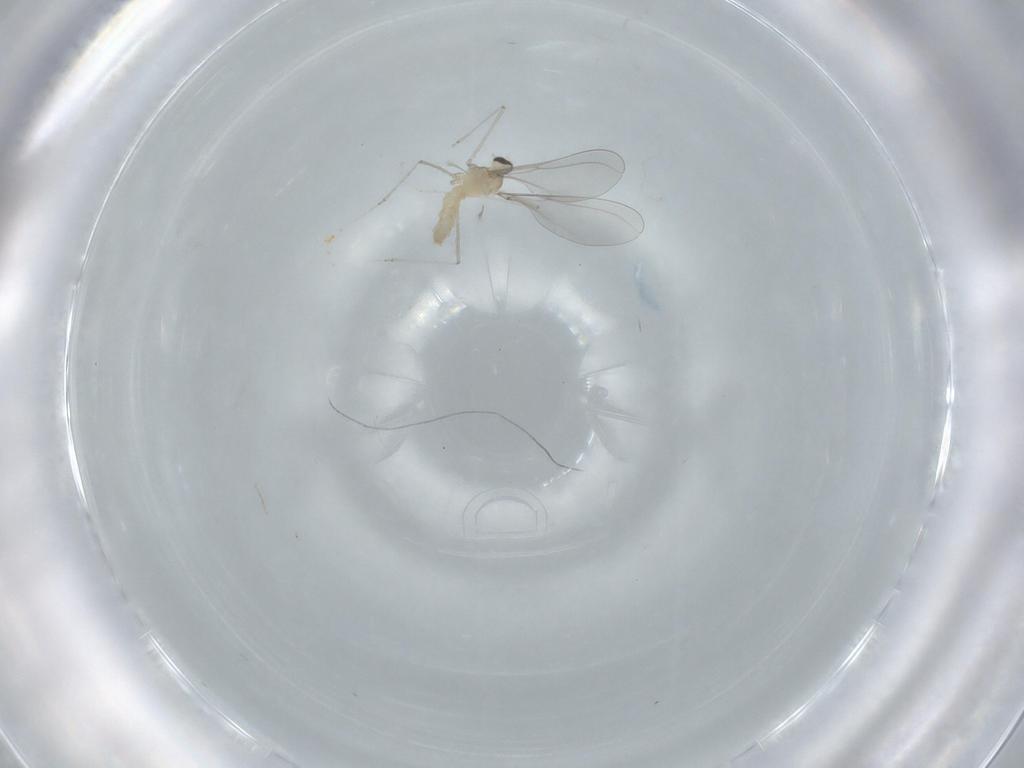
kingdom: Animalia
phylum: Arthropoda
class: Insecta
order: Diptera
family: Cecidomyiidae
